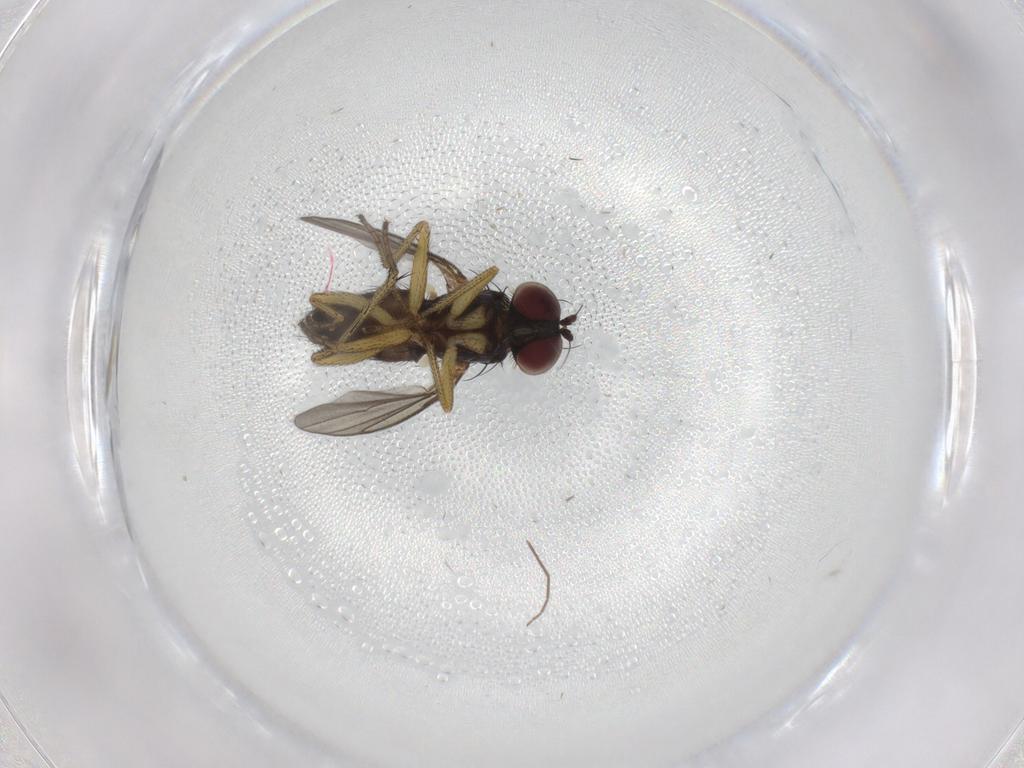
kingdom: Animalia
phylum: Arthropoda
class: Insecta
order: Diptera
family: Dolichopodidae
